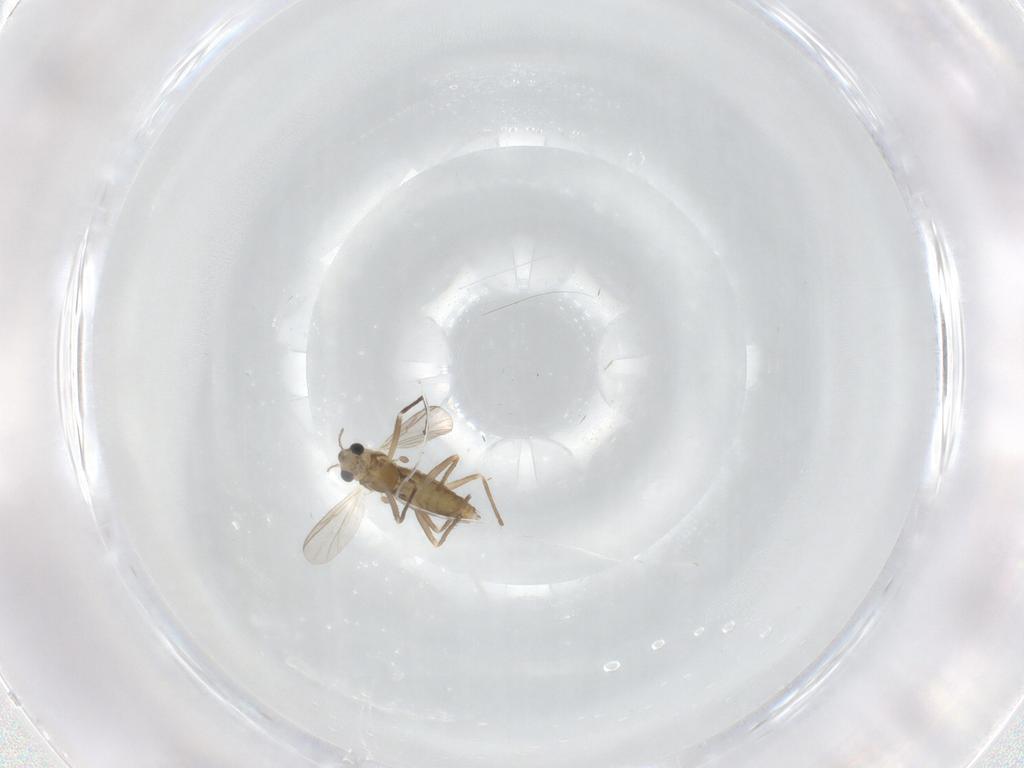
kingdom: Animalia
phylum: Arthropoda
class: Insecta
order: Diptera
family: Chironomidae
